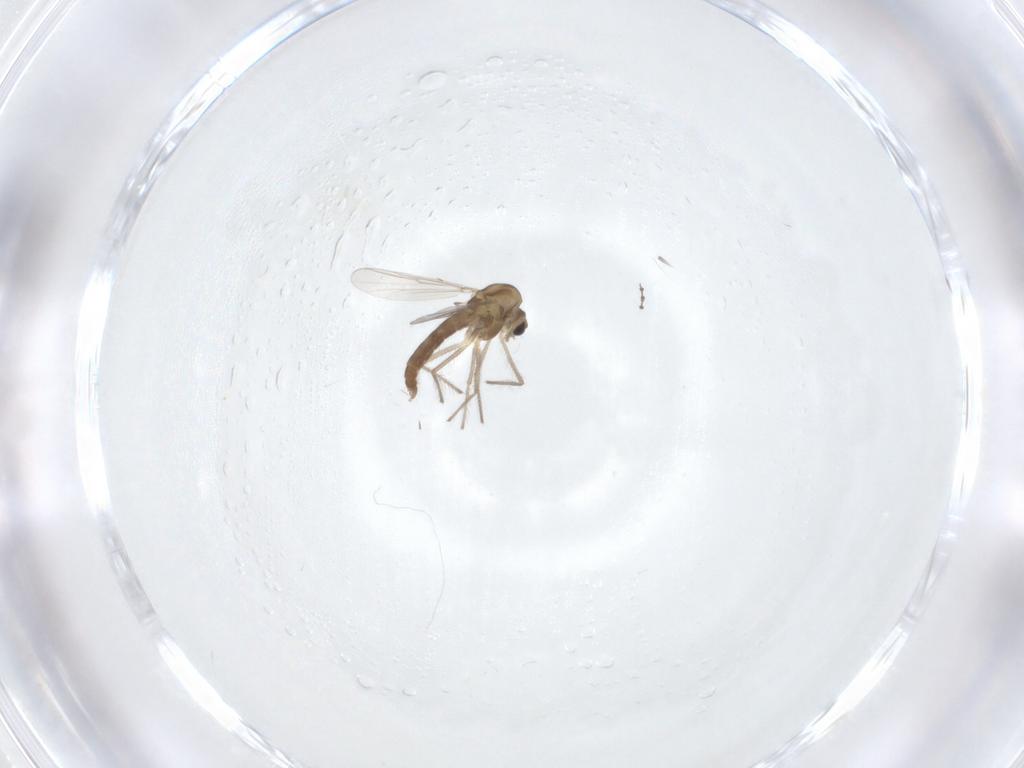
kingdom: Animalia
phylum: Arthropoda
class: Insecta
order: Diptera
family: Chironomidae
